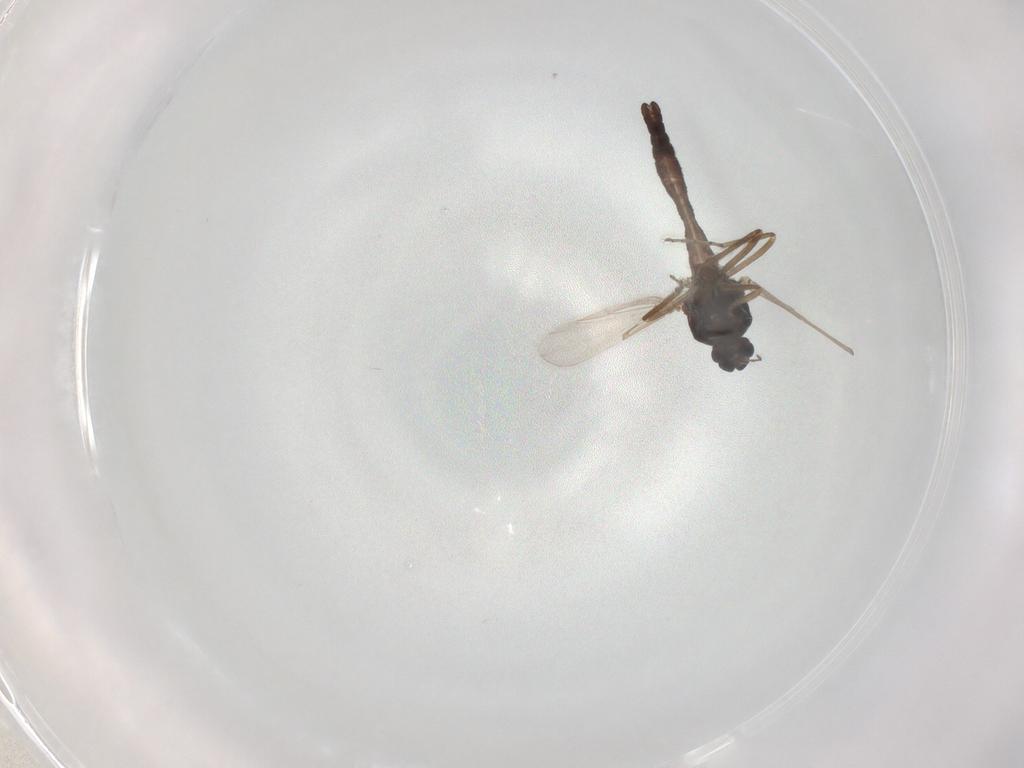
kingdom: Animalia
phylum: Arthropoda
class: Insecta
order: Diptera
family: Ceratopogonidae
